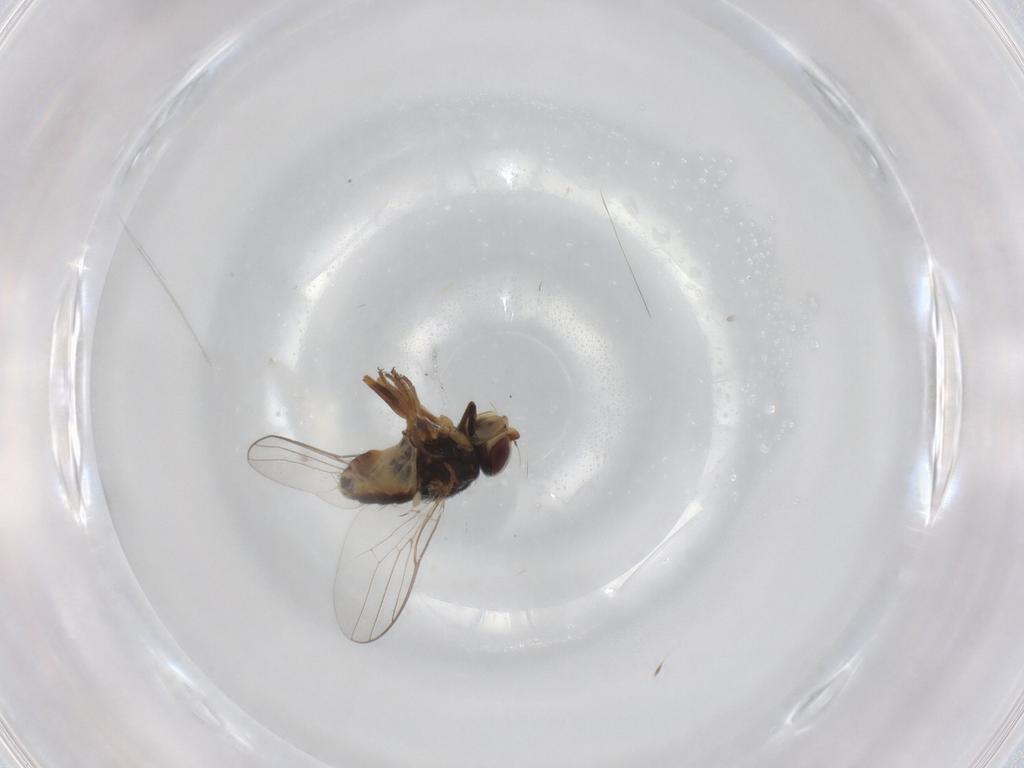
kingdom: Animalia
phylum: Arthropoda
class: Insecta
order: Diptera
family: Chloropidae
